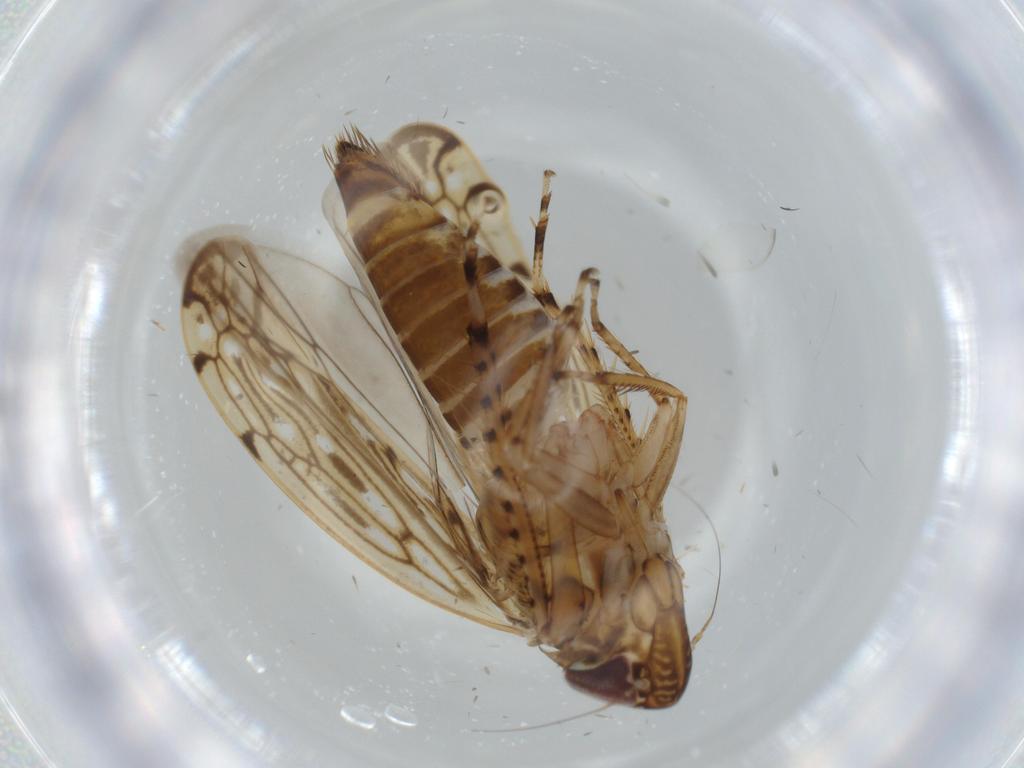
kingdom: Animalia
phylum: Arthropoda
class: Insecta
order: Hemiptera
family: Cicadellidae
